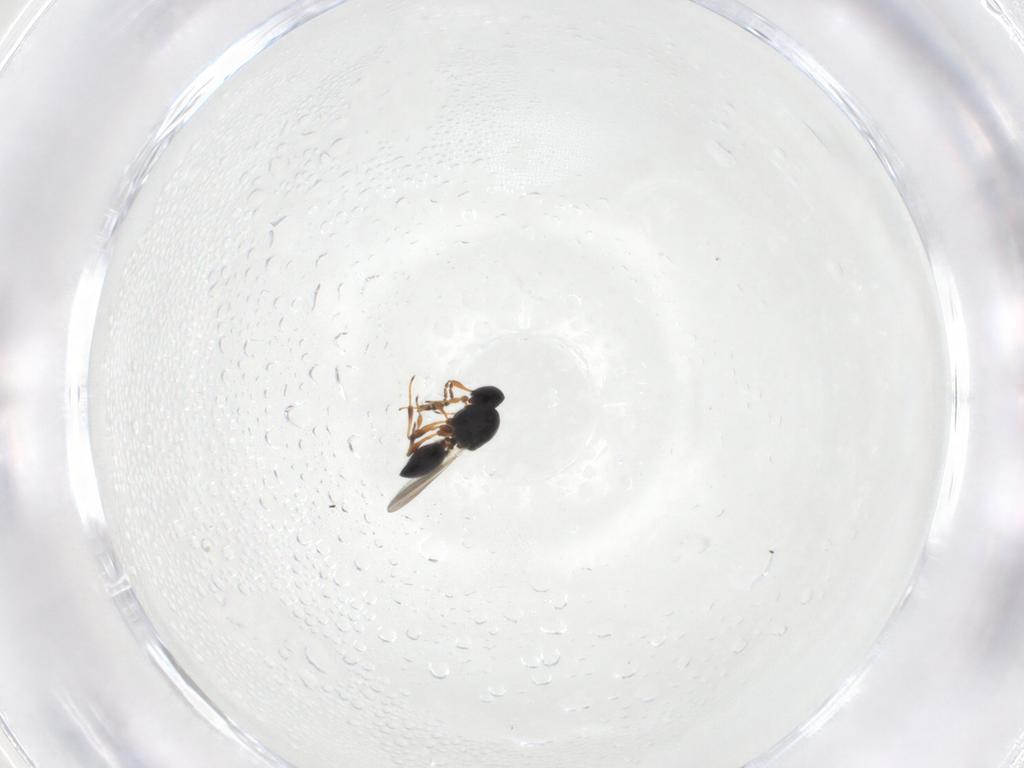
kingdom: Animalia
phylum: Arthropoda
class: Insecta
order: Hymenoptera
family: Platygastridae
